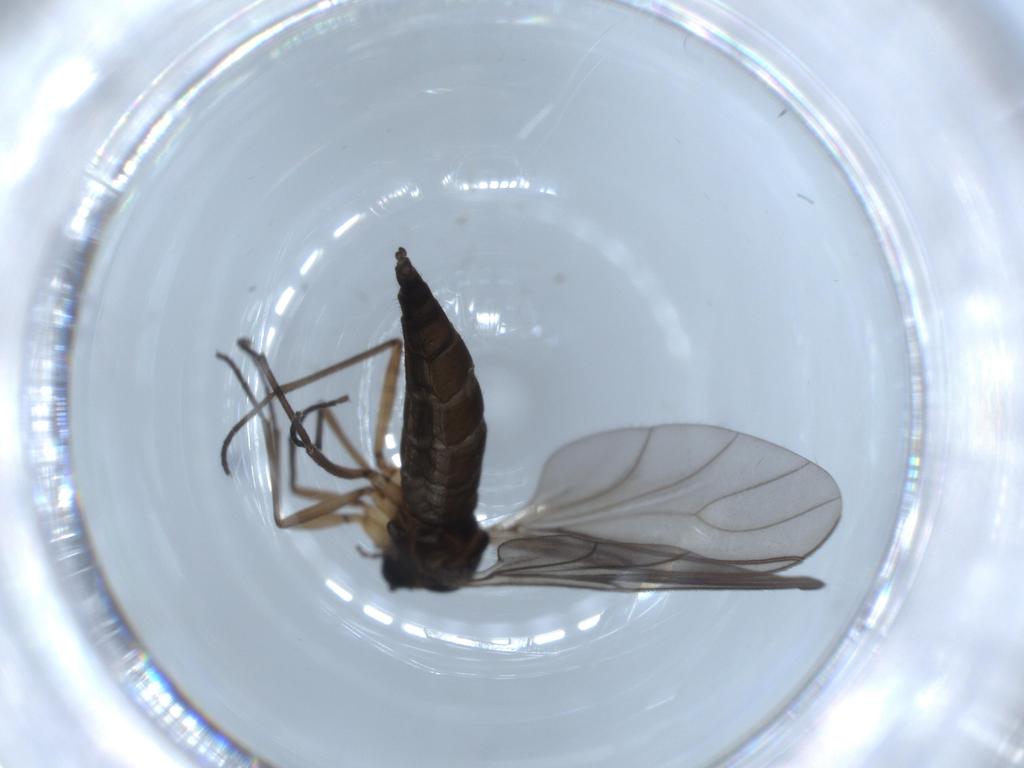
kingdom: Animalia
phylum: Arthropoda
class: Insecta
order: Diptera
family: Sciaridae
